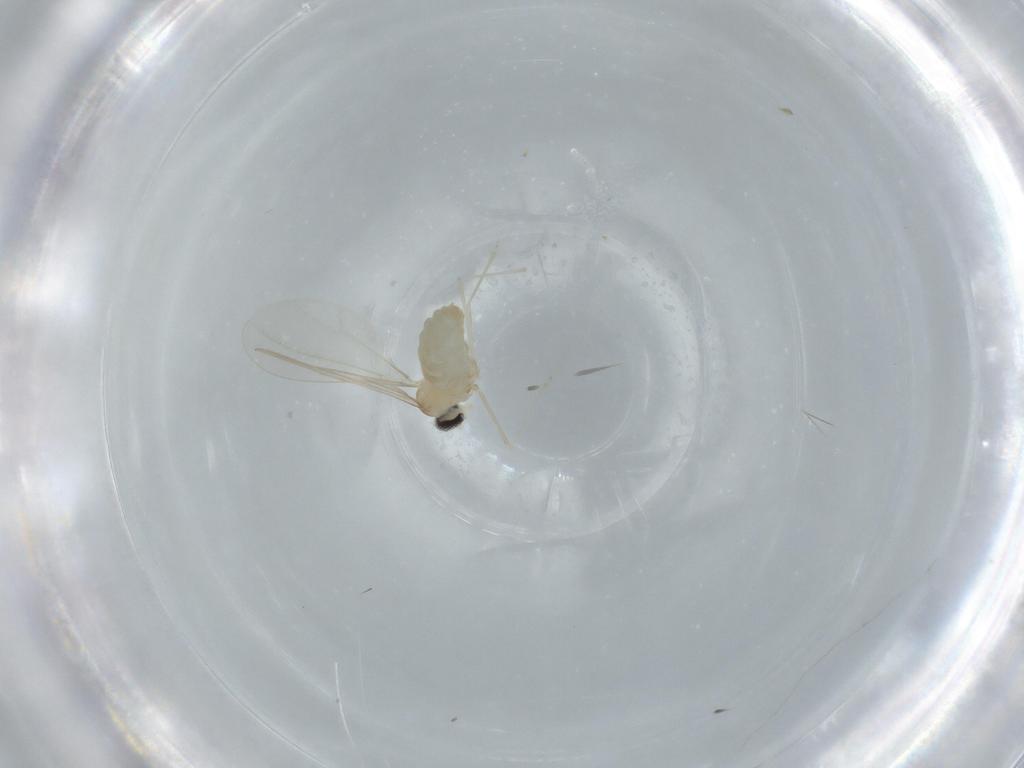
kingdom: Animalia
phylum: Arthropoda
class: Insecta
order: Diptera
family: Cecidomyiidae
